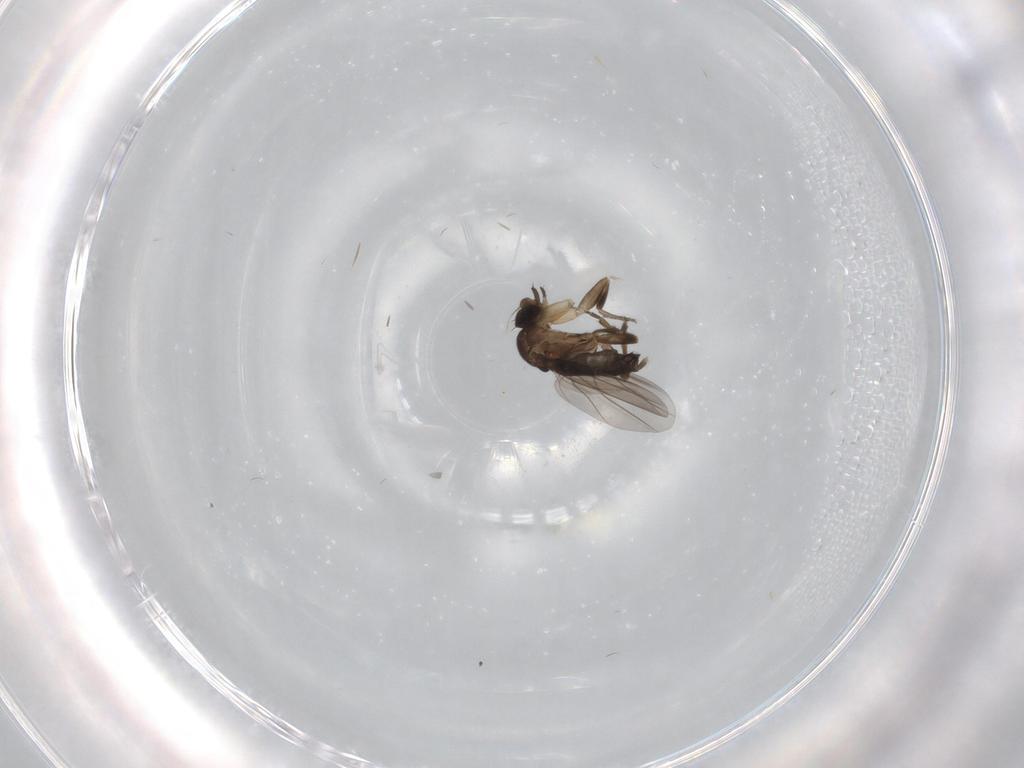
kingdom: Animalia
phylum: Arthropoda
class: Insecta
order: Diptera
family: Phoridae
